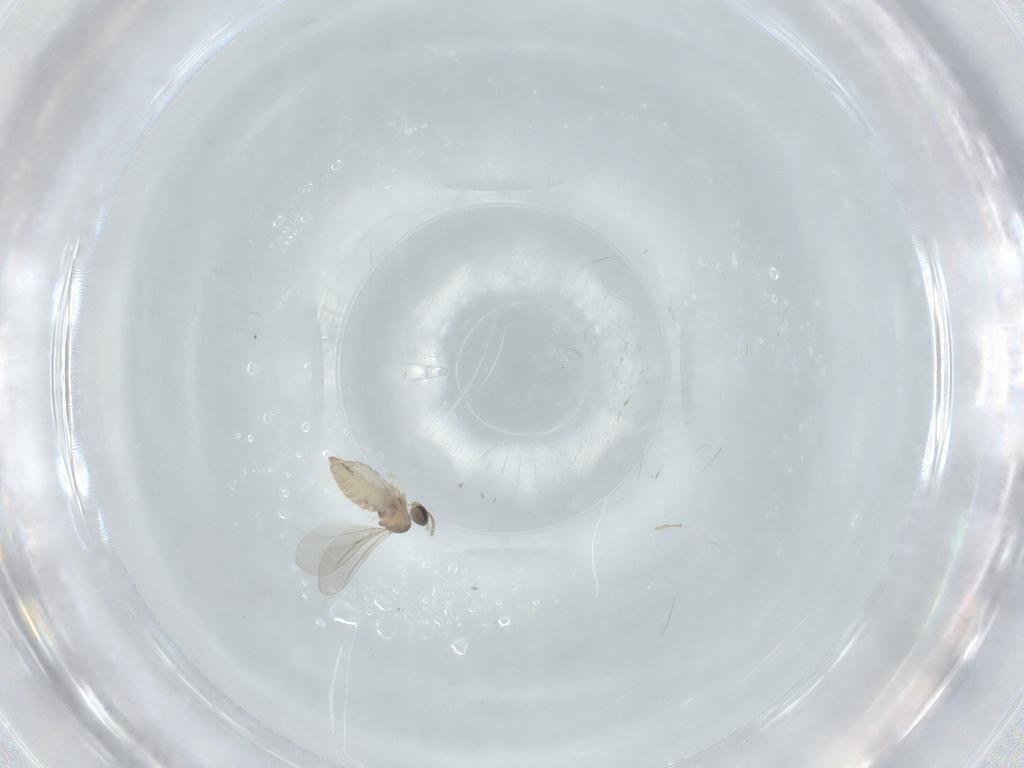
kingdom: Animalia
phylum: Arthropoda
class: Insecta
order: Diptera
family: Cecidomyiidae
